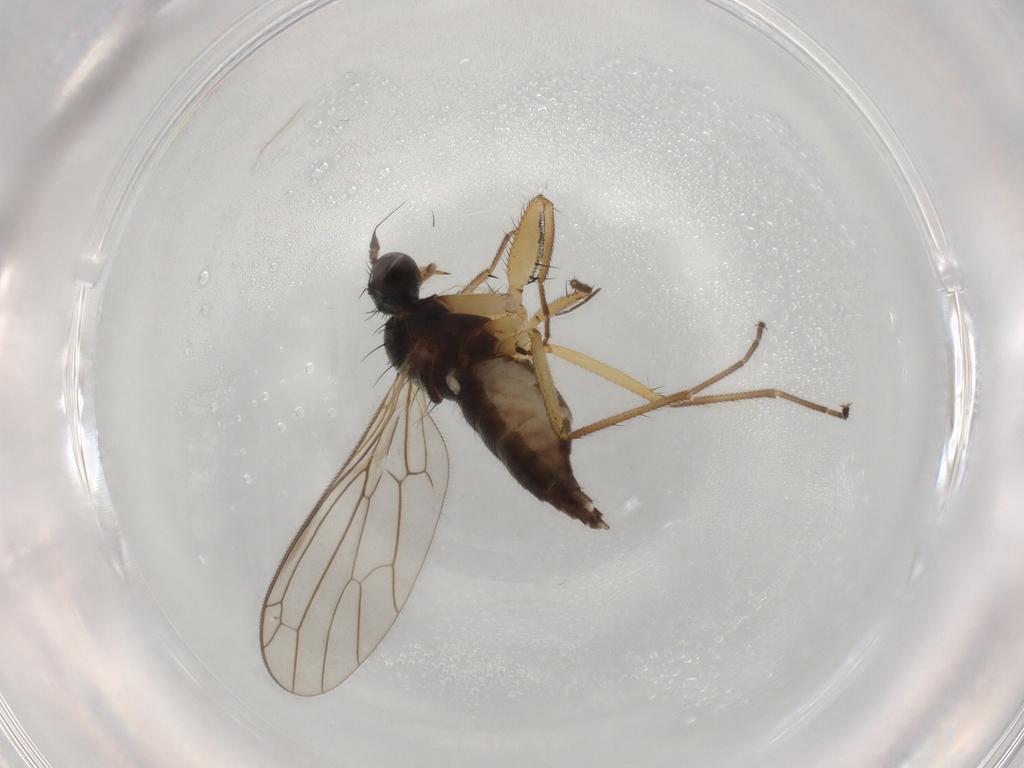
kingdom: Animalia
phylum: Arthropoda
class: Insecta
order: Diptera
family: Empididae
